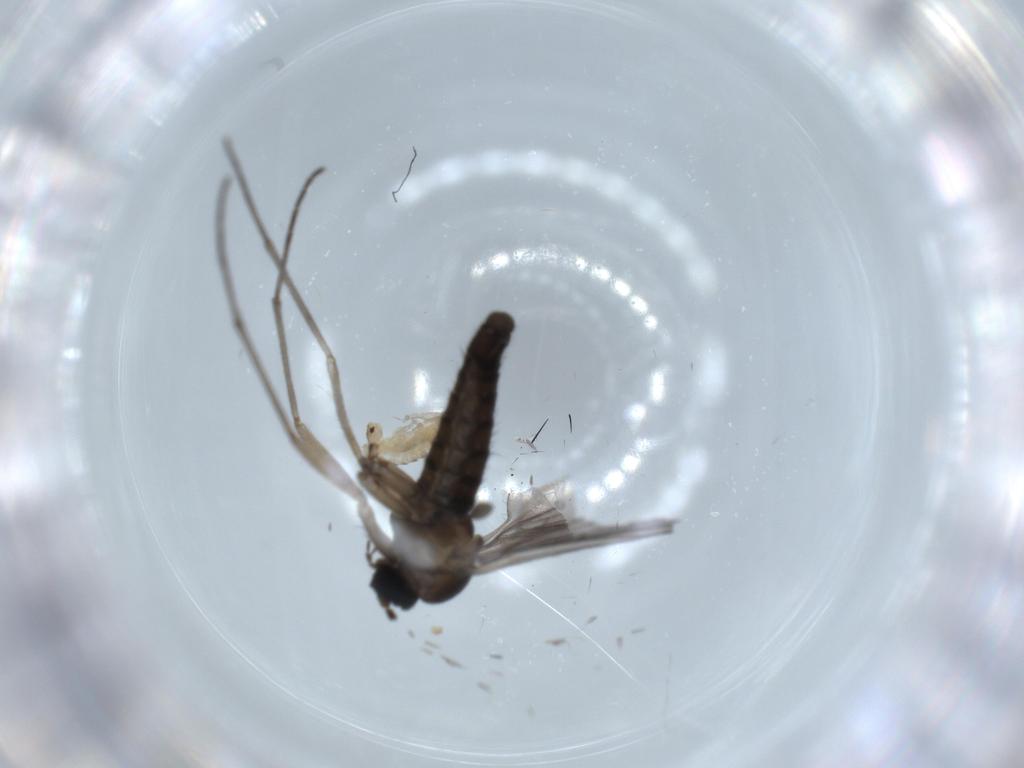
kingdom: Animalia
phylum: Arthropoda
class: Insecta
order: Diptera
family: Sciaridae
